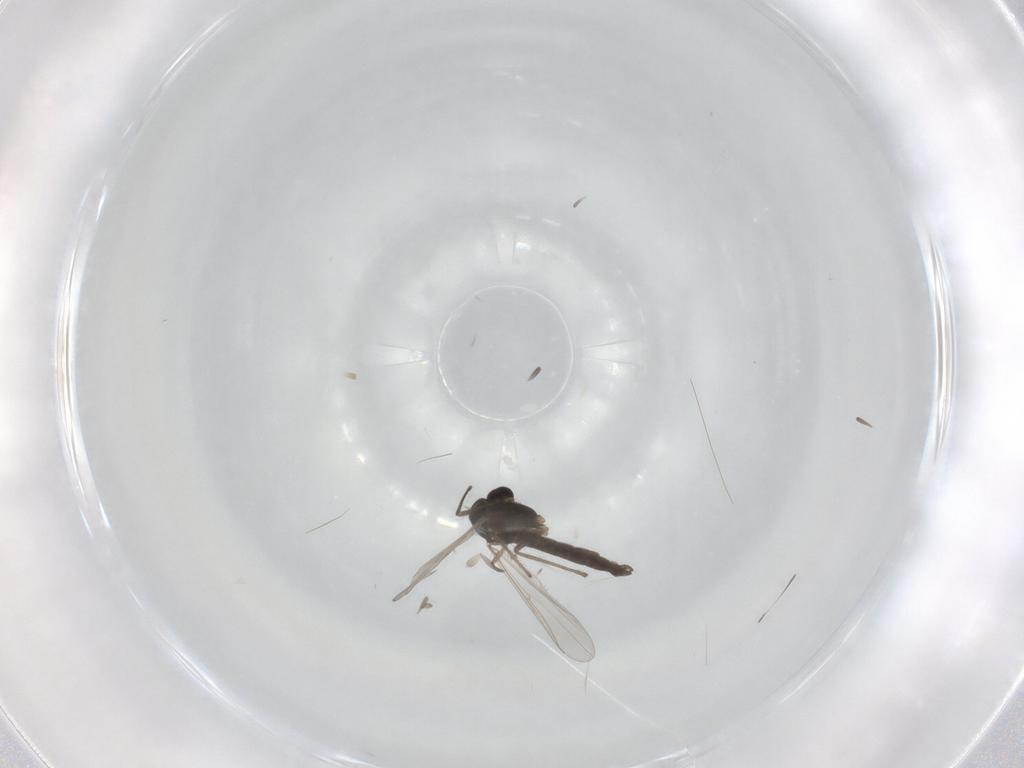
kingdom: Animalia
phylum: Arthropoda
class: Insecta
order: Diptera
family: Chironomidae
